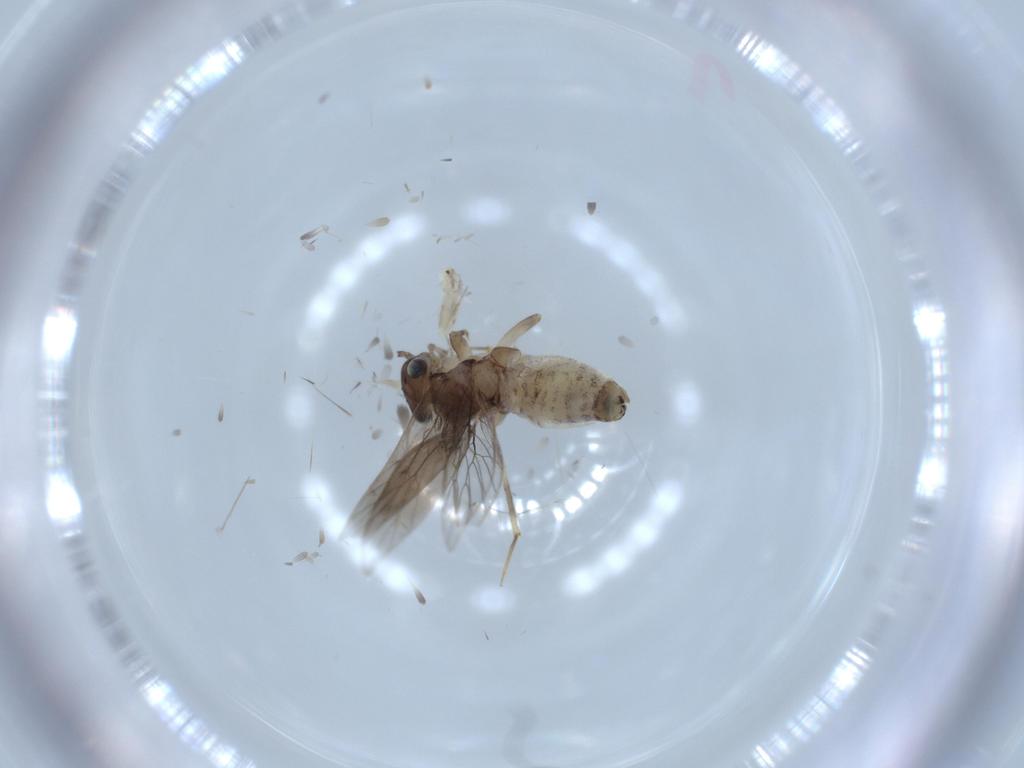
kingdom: Animalia
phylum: Arthropoda
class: Insecta
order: Psocodea
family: Lepidopsocidae
